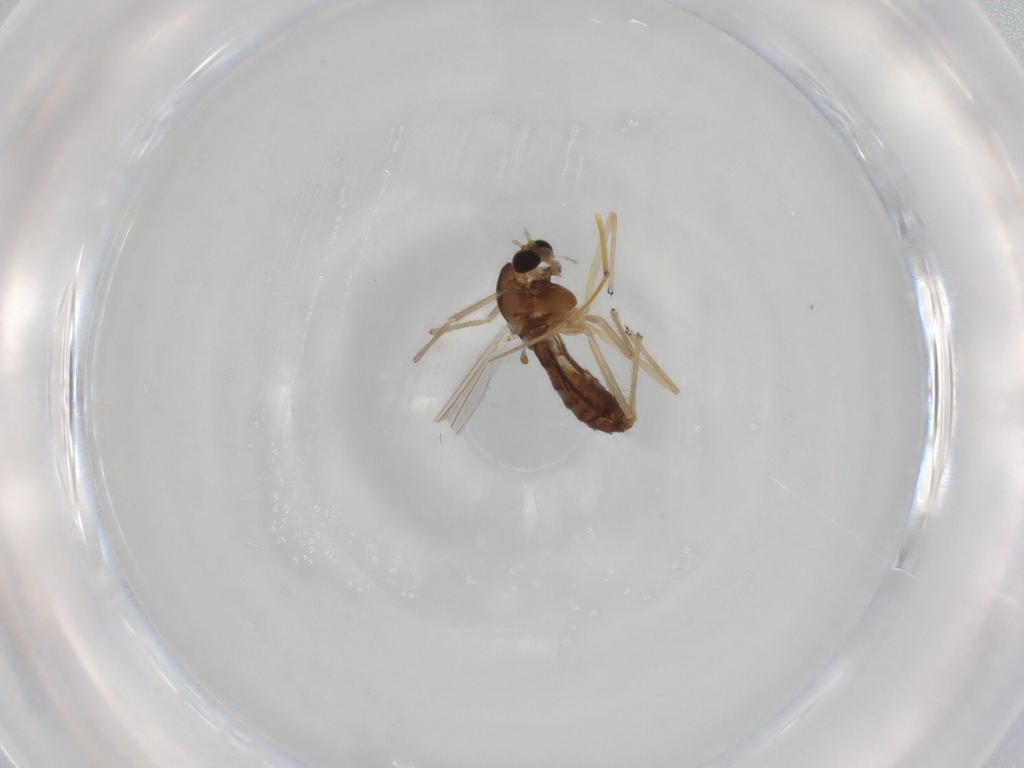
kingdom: Animalia
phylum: Arthropoda
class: Insecta
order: Diptera
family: Chironomidae
